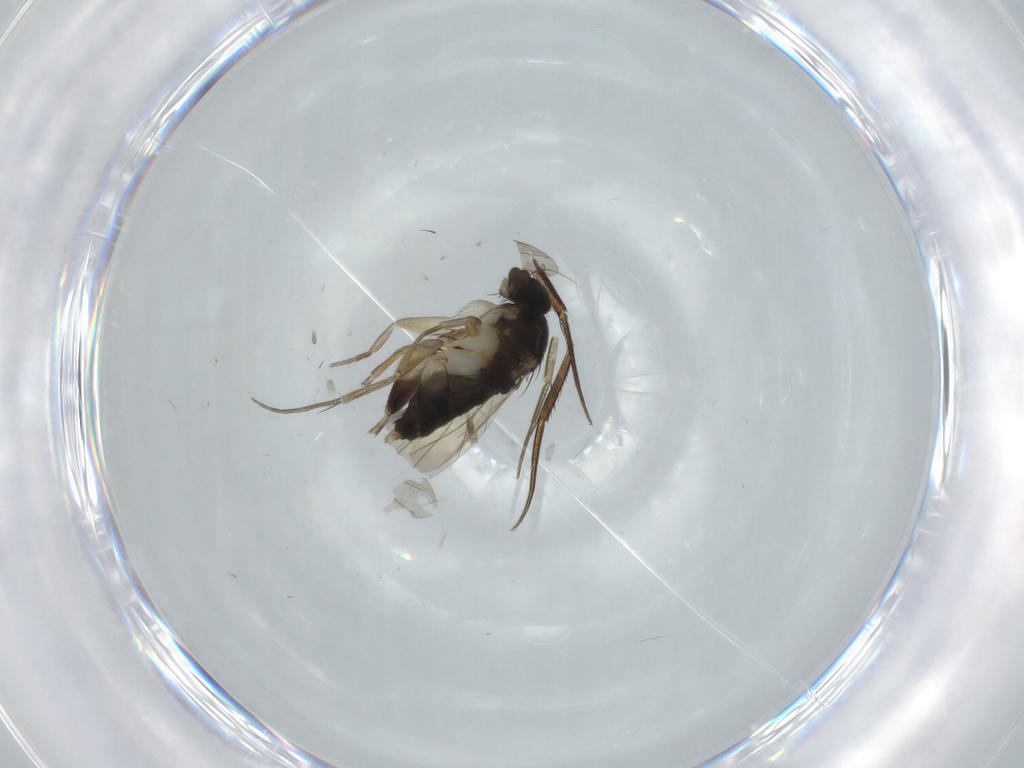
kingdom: Animalia
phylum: Arthropoda
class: Insecta
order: Diptera
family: Phoridae
